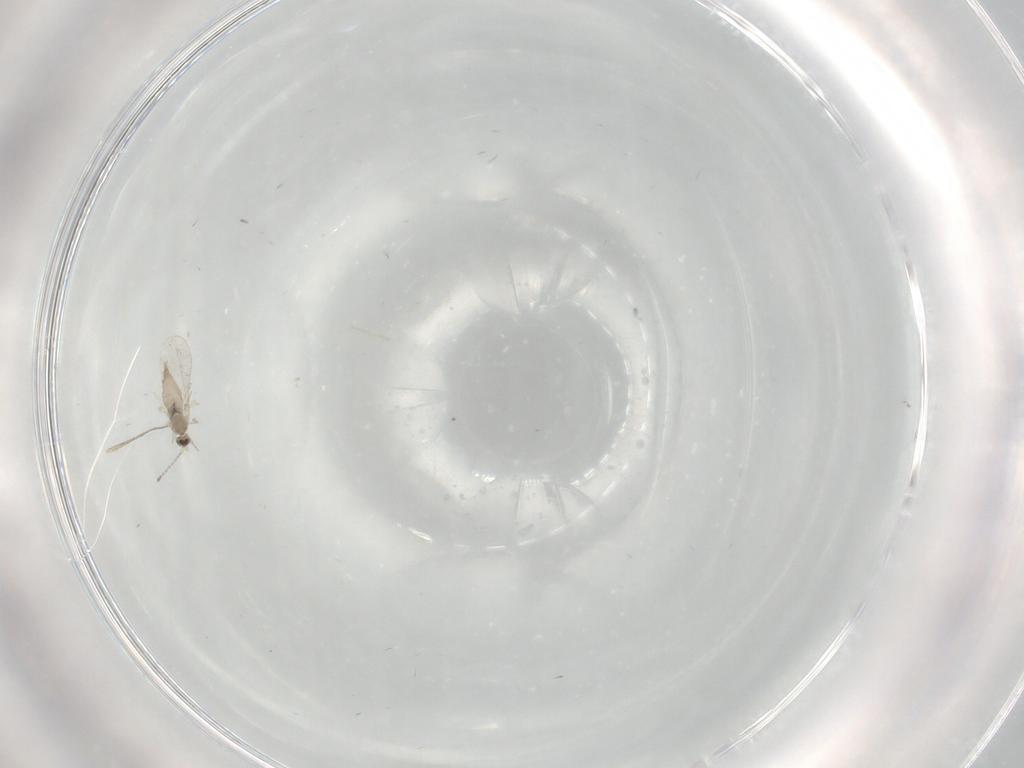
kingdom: Animalia
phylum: Arthropoda
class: Insecta
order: Diptera
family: Cecidomyiidae
